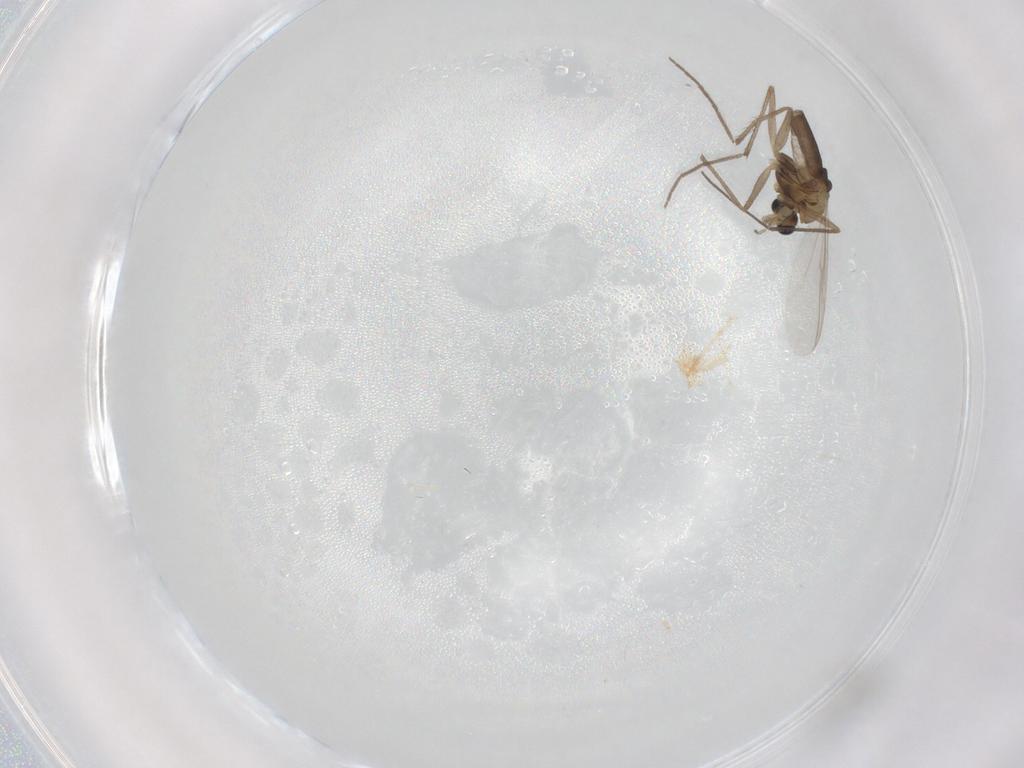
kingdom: Animalia
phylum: Arthropoda
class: Insecta
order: Diptera
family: Chironomidae
